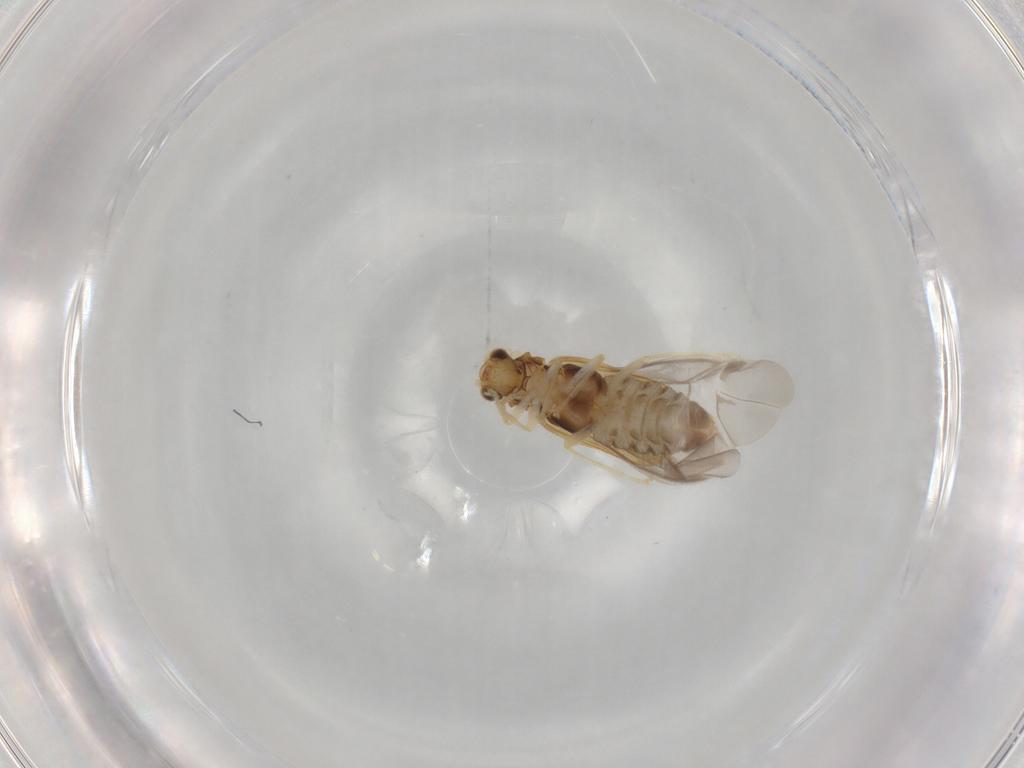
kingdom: Animalia
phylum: Arthropoda
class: Insecta
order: Coleoptera
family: Cantharidae
